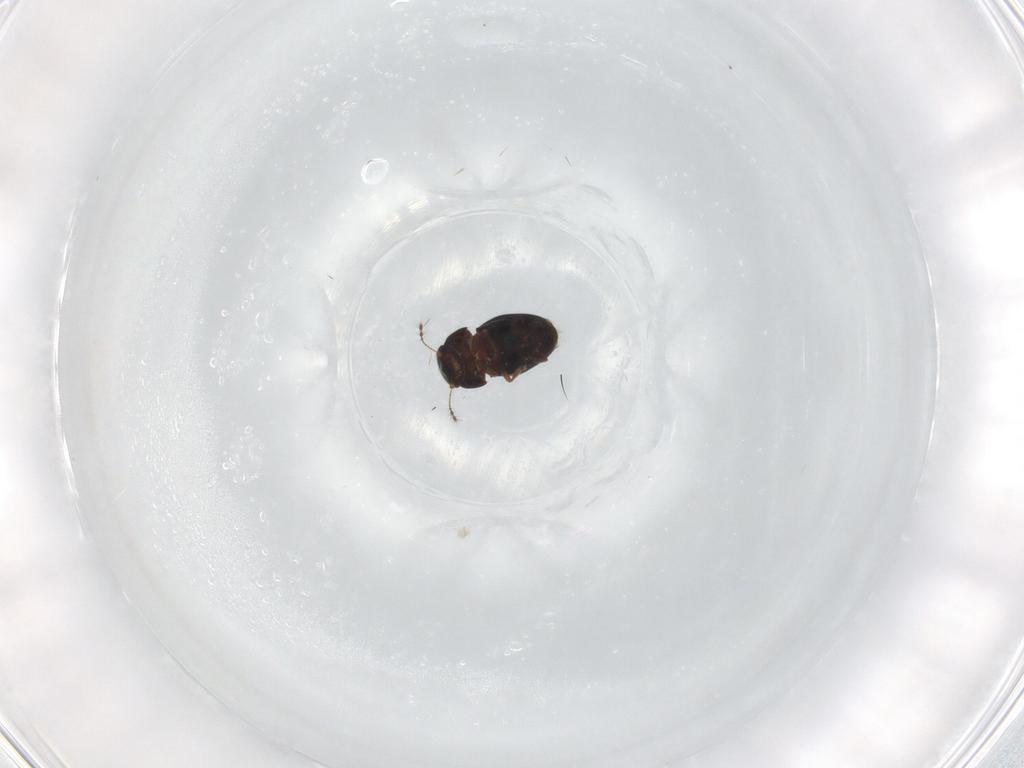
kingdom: Animalia
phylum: Arthropoda
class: Insecta
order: Coleoptera
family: Ptiliidae
